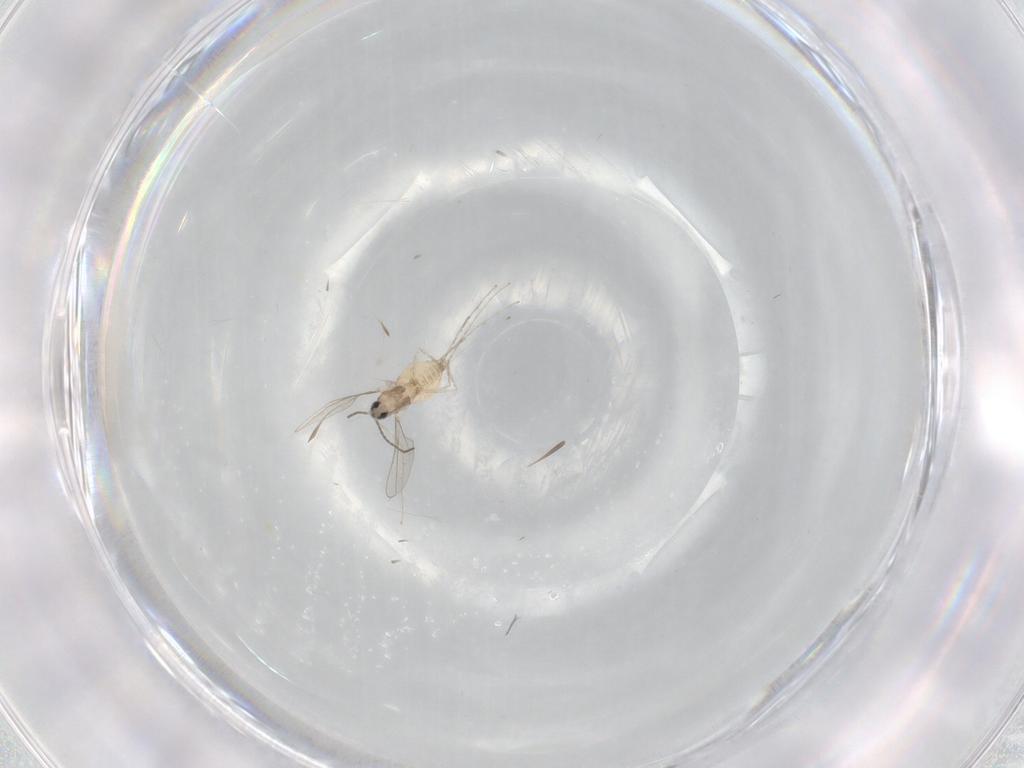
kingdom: Animalia
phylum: Arthropoda
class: Insecta
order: Diptera
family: Cecidomyiidae
